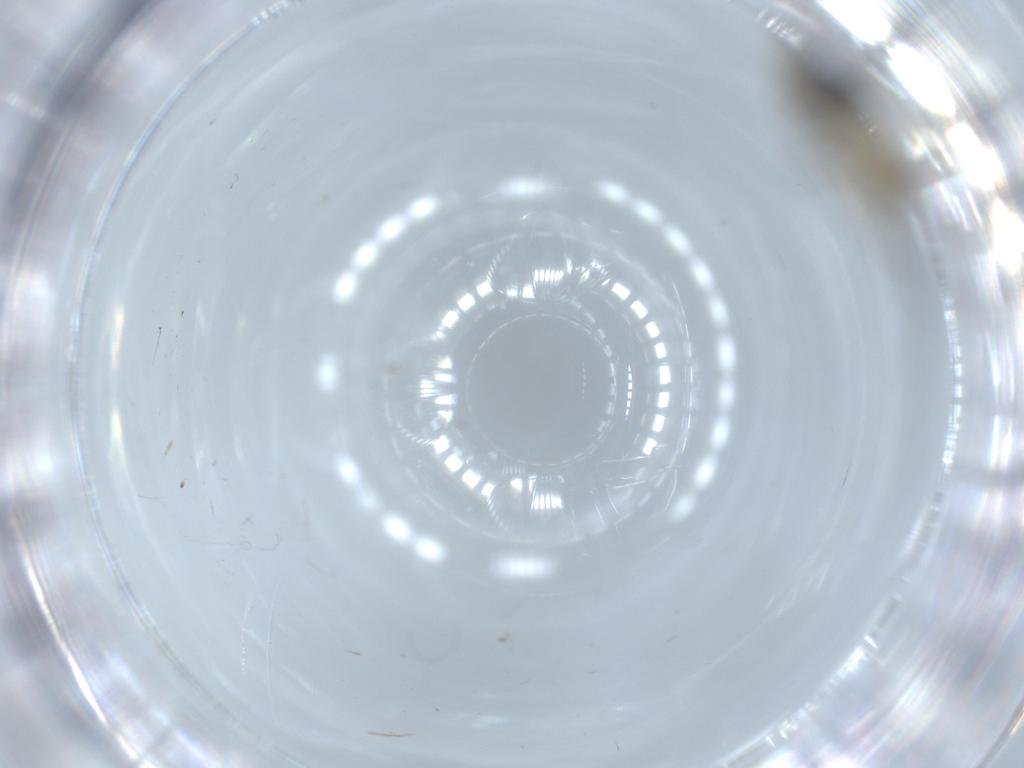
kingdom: Animalia
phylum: Arthropoda
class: Insecta
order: Diptera
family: Sciaridae
